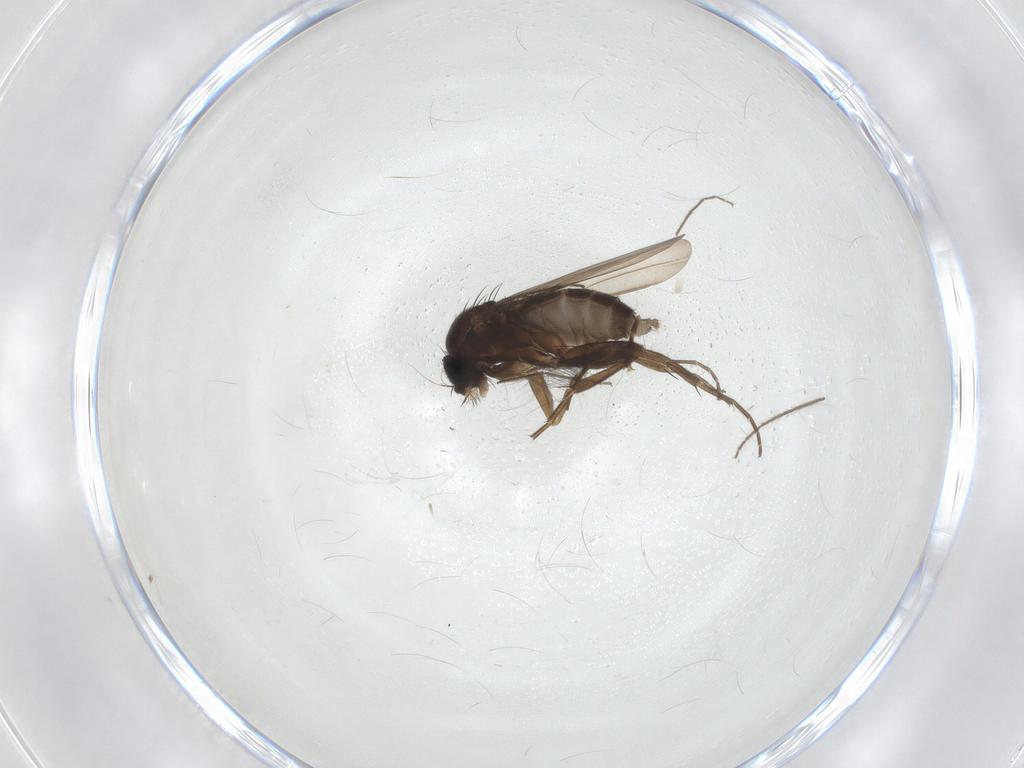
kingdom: Animalia
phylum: Arthropoda
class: Insecta
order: Diptera
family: Phoridae
